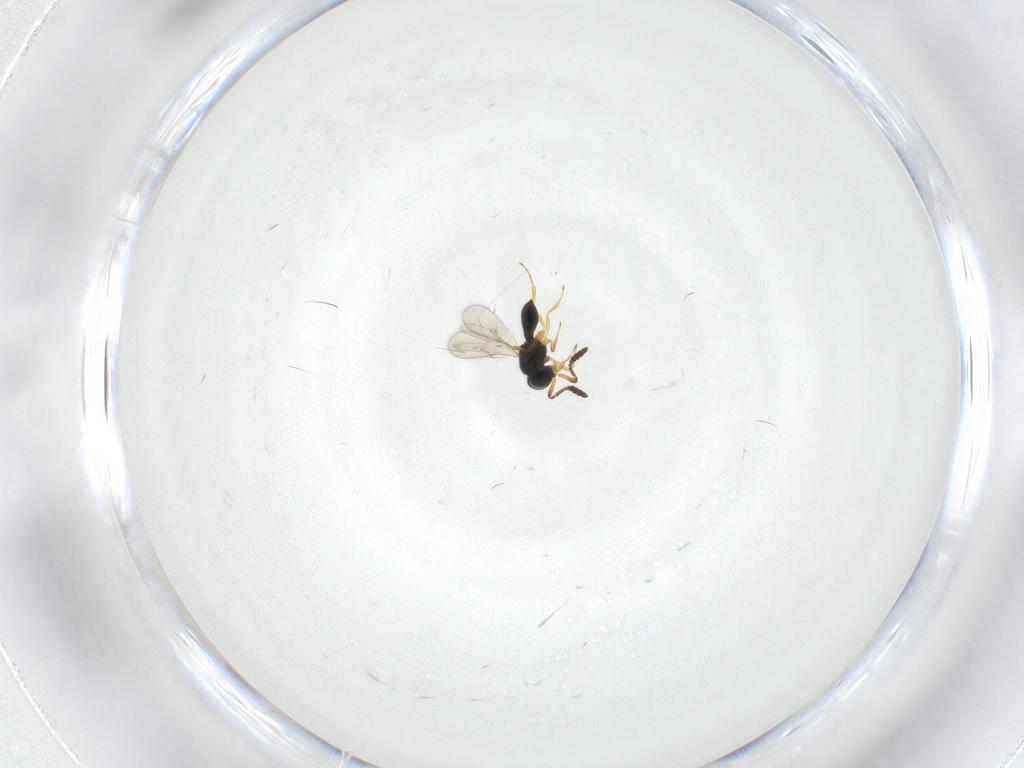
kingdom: Animalia
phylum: Arthropoda
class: Insecta
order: Hymenoptera
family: Scelionidae
